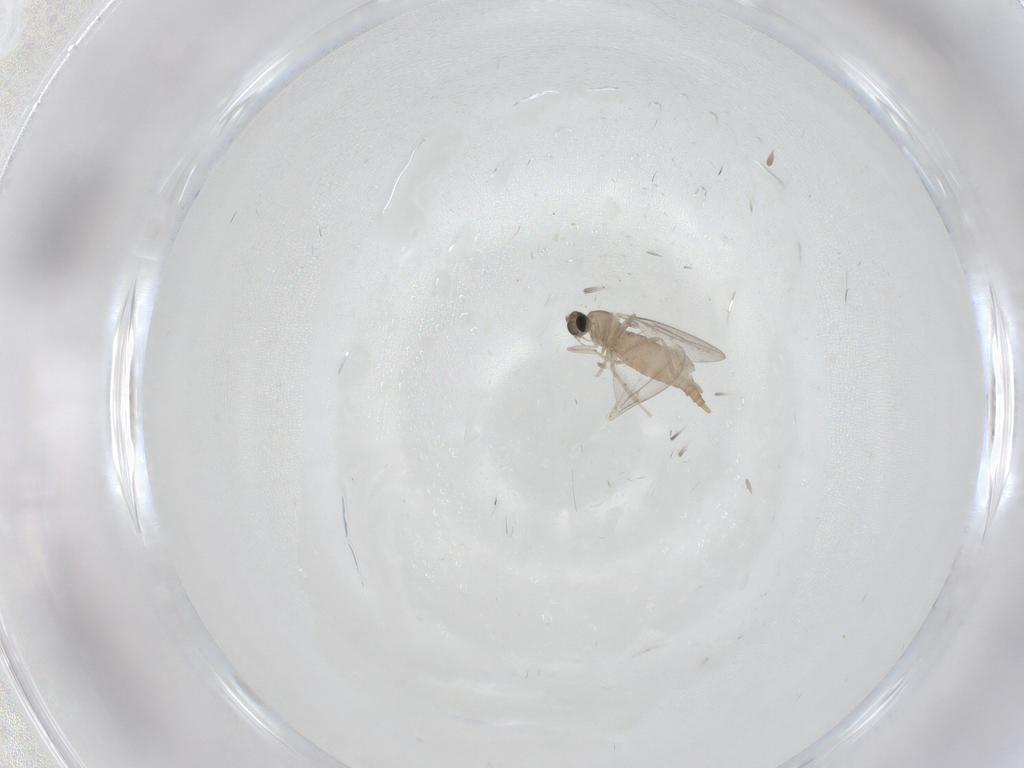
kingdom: Animalia
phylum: Arthropoda
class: Insecta
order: Diptera
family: Cecidomyiidae
